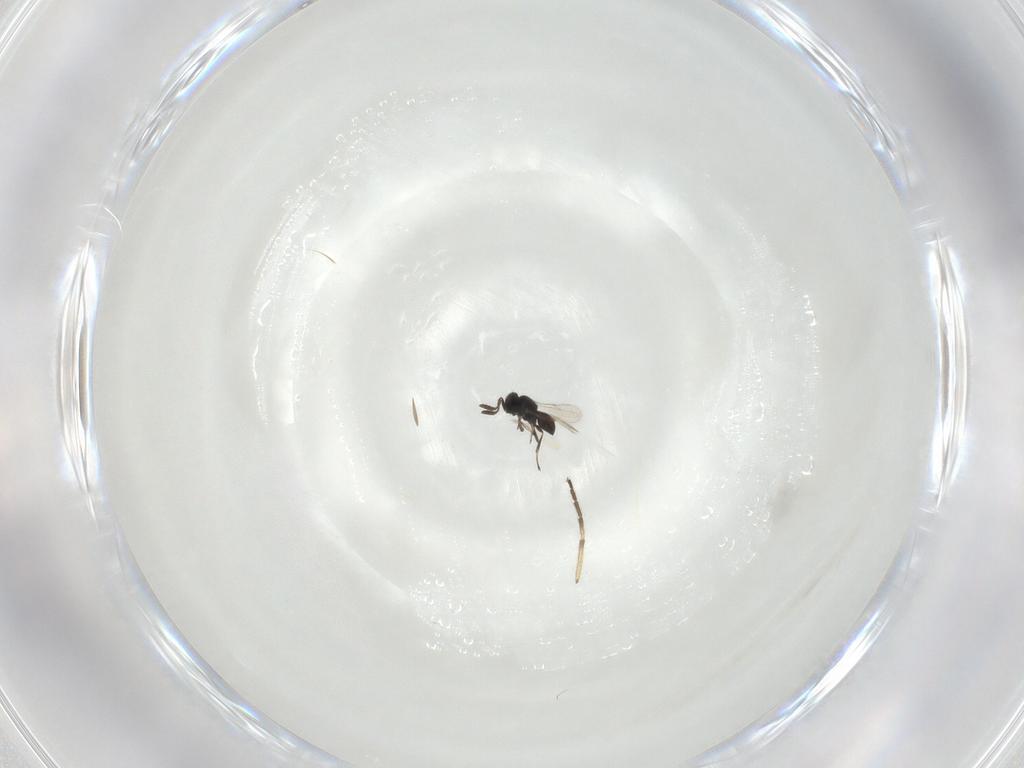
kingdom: Animalia
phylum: Arthropoda
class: Insecta
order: Hymenoptera
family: Scelionidae
